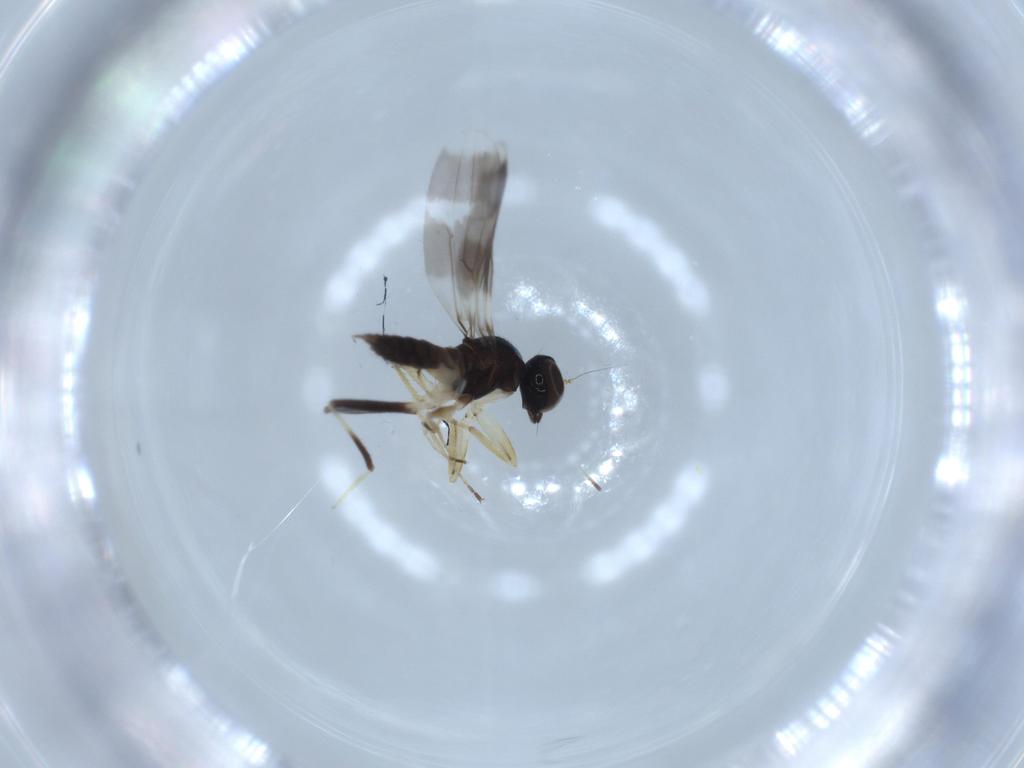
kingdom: Animalia
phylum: Arthropoda
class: Insecta
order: Diptera
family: Hybotidae
